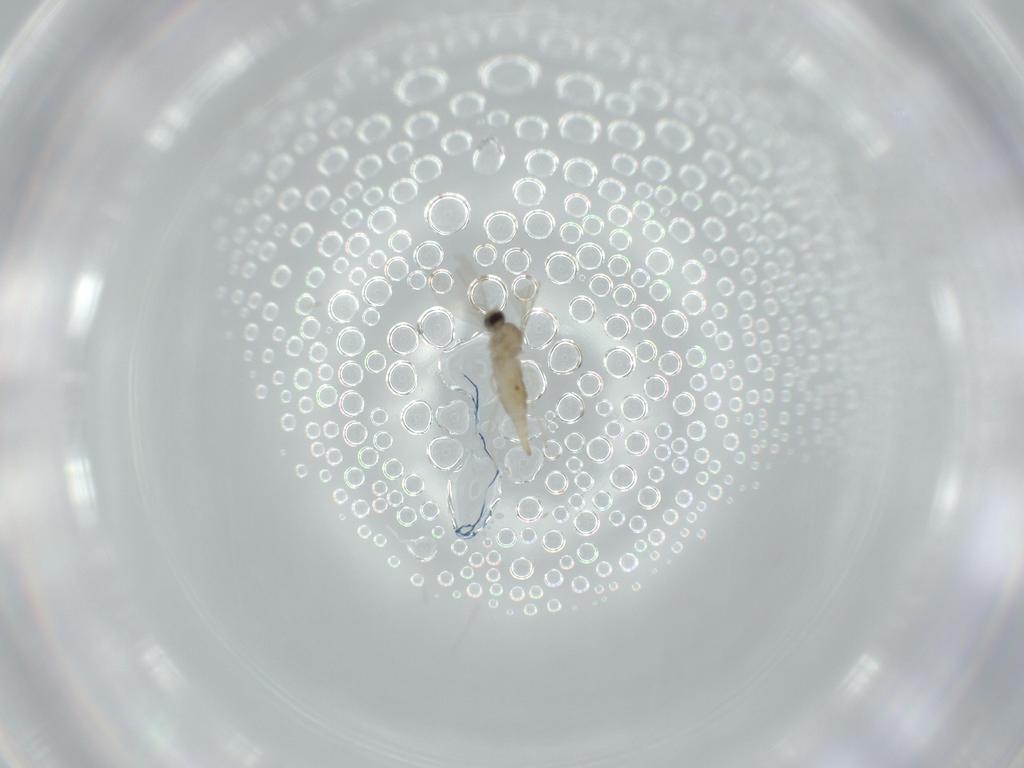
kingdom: Animalia
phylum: Arthropoda
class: Insecta
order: Diptera
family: Cecidomyiidae
